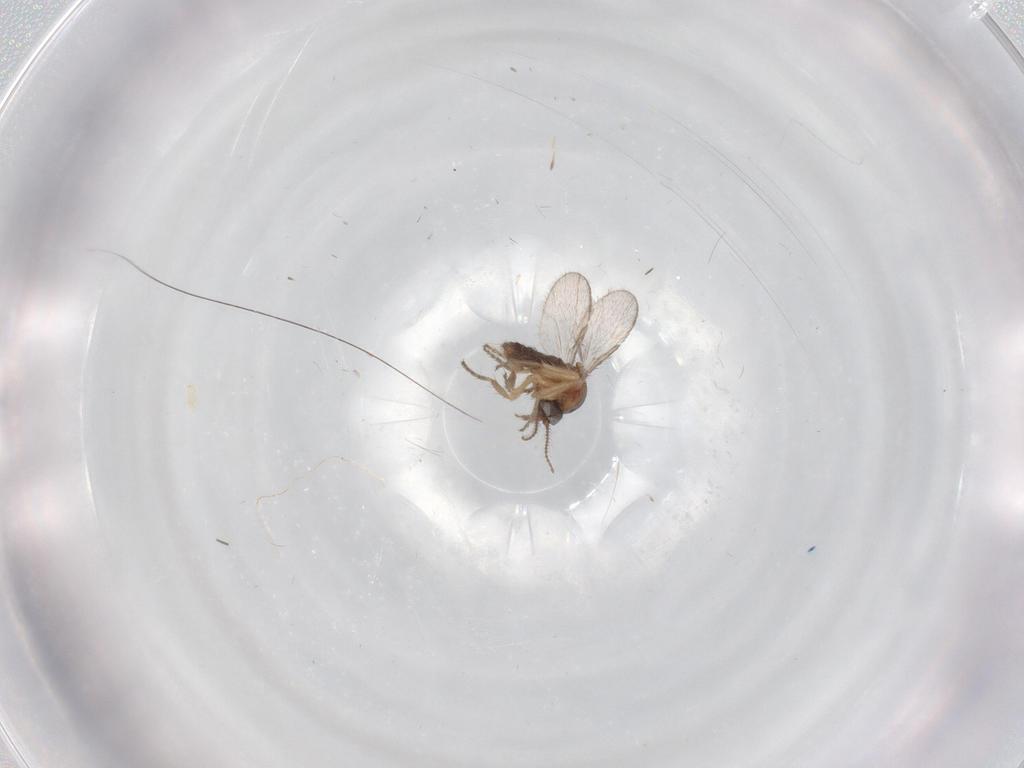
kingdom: Animalia
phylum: Arthropoda
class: Insecta
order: Diptera
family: Ceratopogonidae
